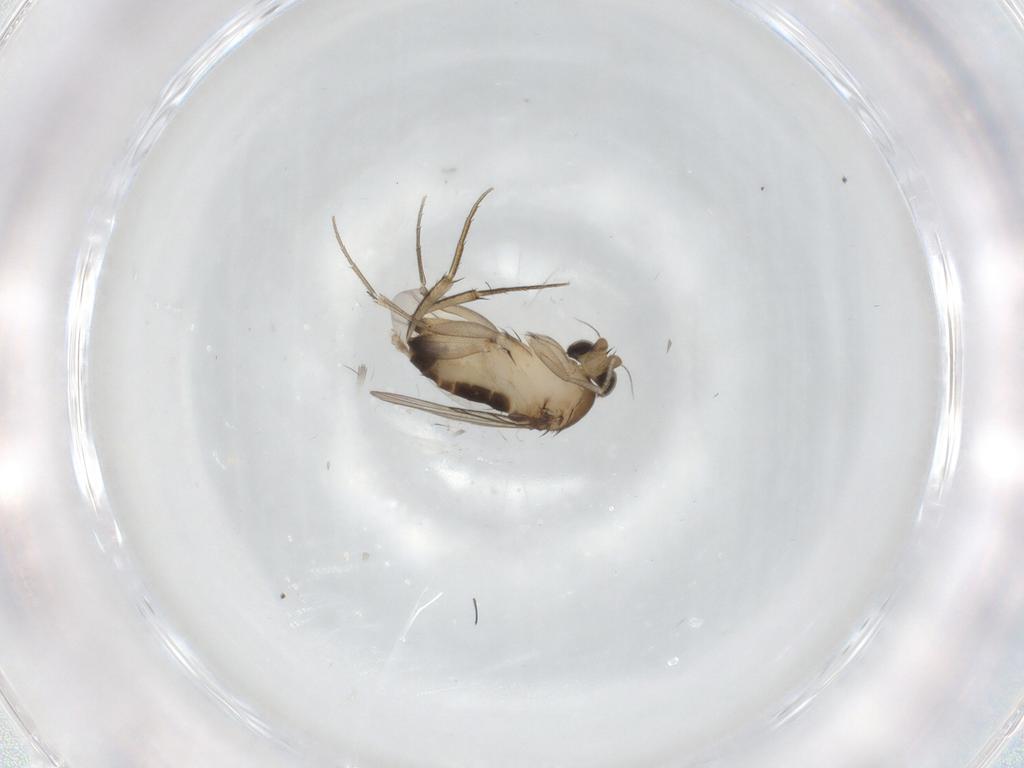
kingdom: Animalia
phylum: Arthropoda
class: Insecta
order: Diptera
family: Phoridae
